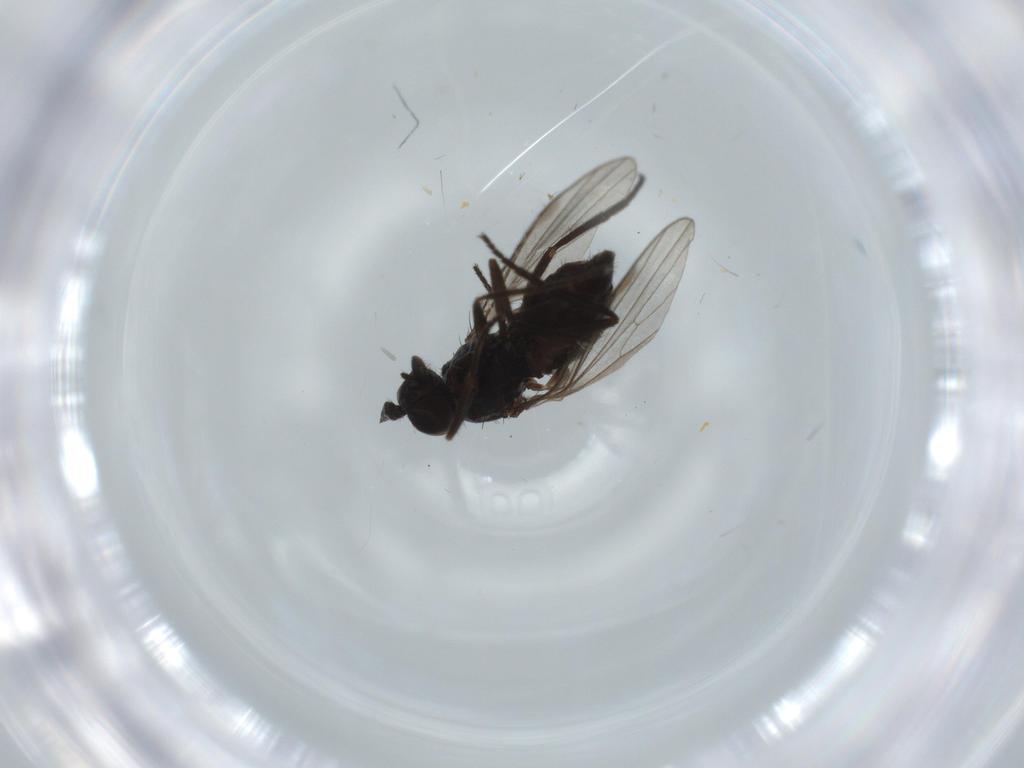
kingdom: Animalia
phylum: Arthropoda
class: Insecta
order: Diptera
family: Dolichopodidae
